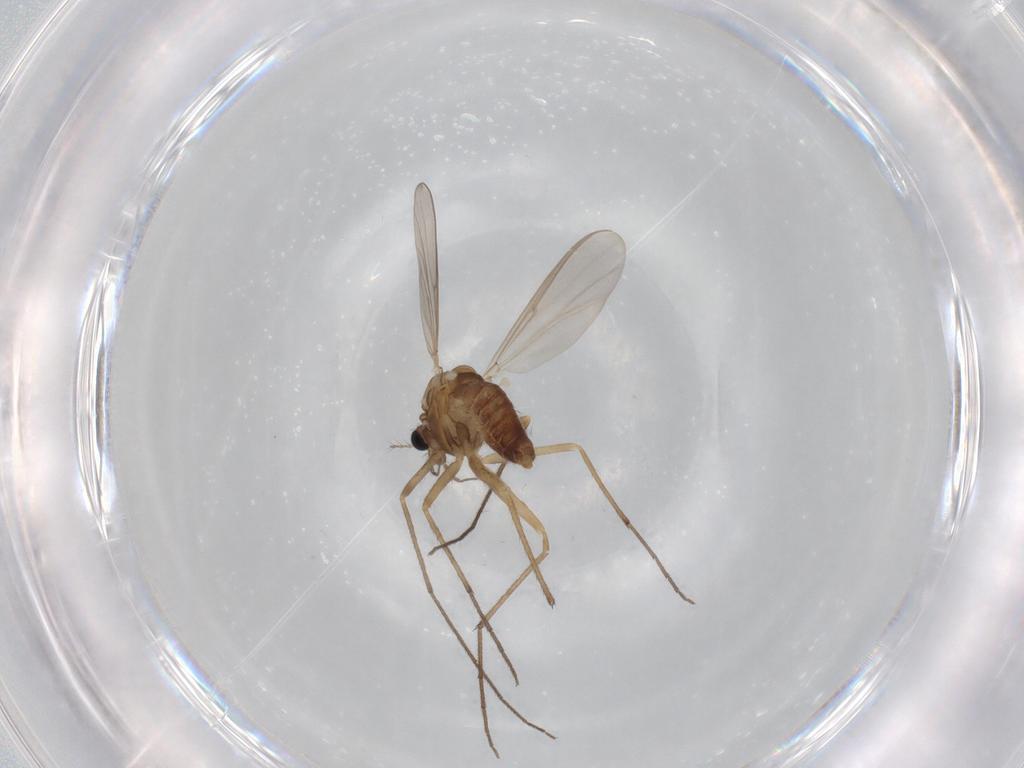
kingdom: Animalia
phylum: Arthropoda
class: Insecta
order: Diptera
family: Chironomidae
